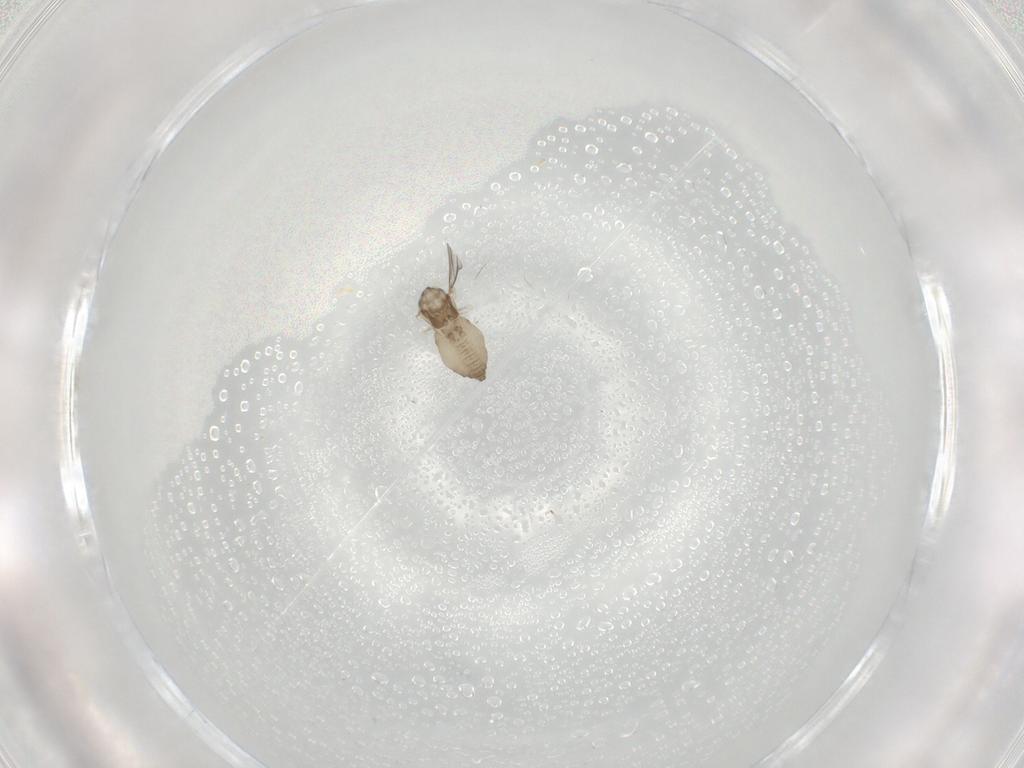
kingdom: Animalia
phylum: Arthropoda
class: Insecta
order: Diptera
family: Cecidomyiidae
